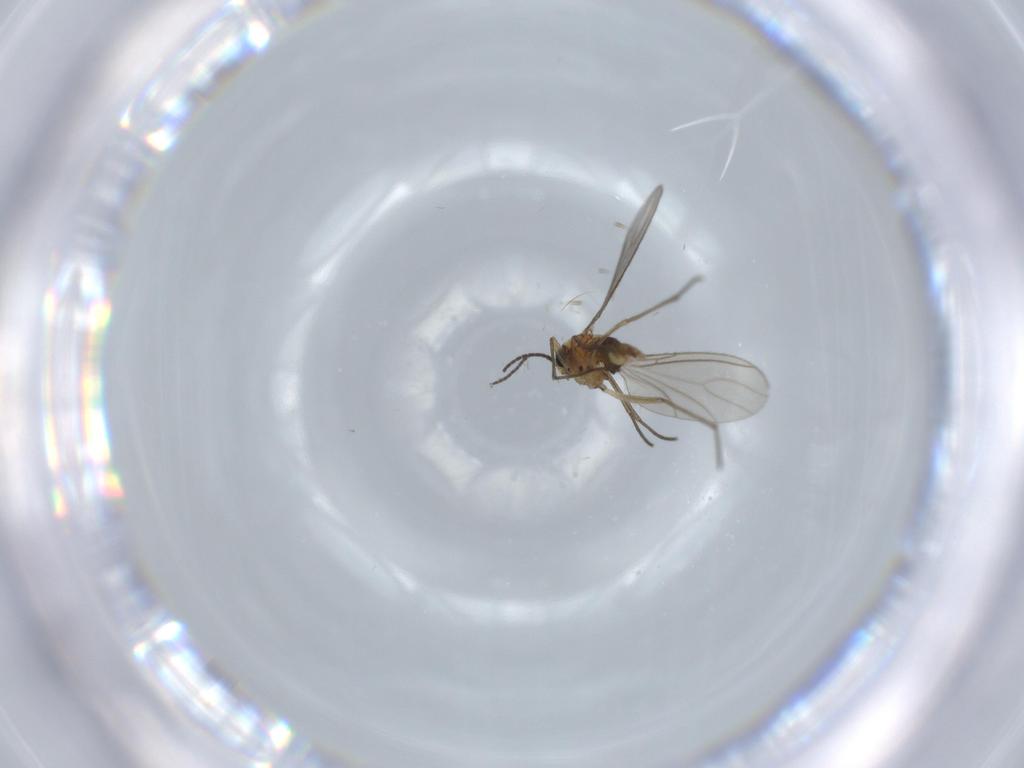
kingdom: Animalia
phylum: Arthropoda
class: Insecta
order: Diptera
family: Sciaridae
